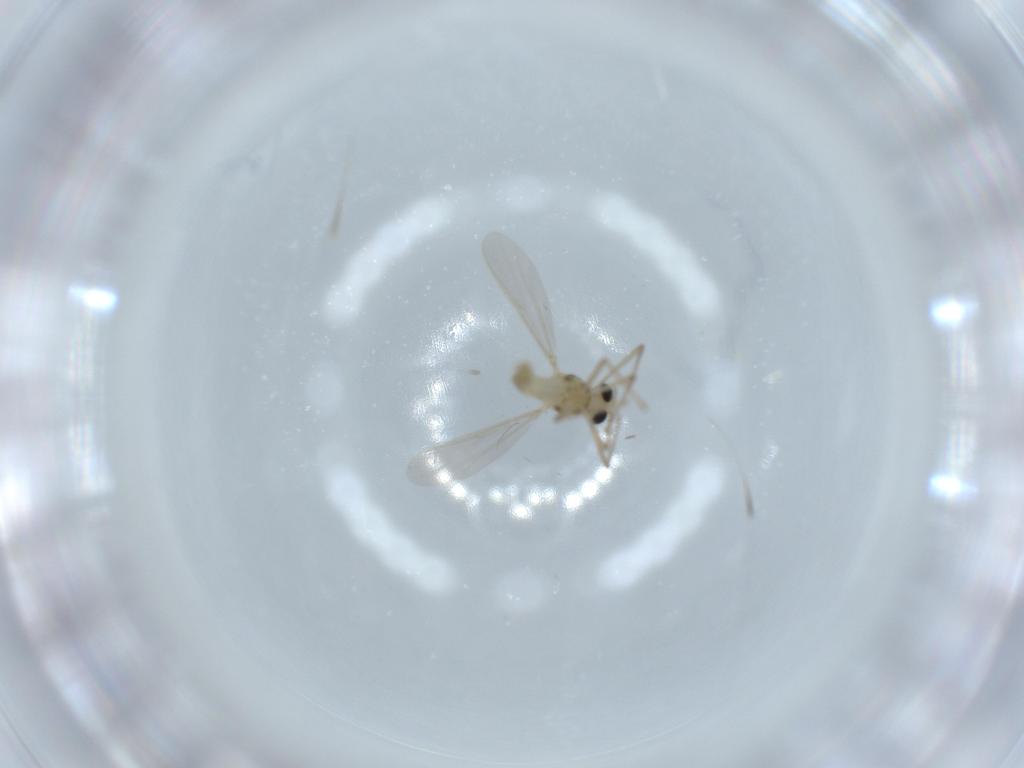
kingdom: Animalia
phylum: Arthropoda
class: Insecta
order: Diptera
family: Chironomidae
